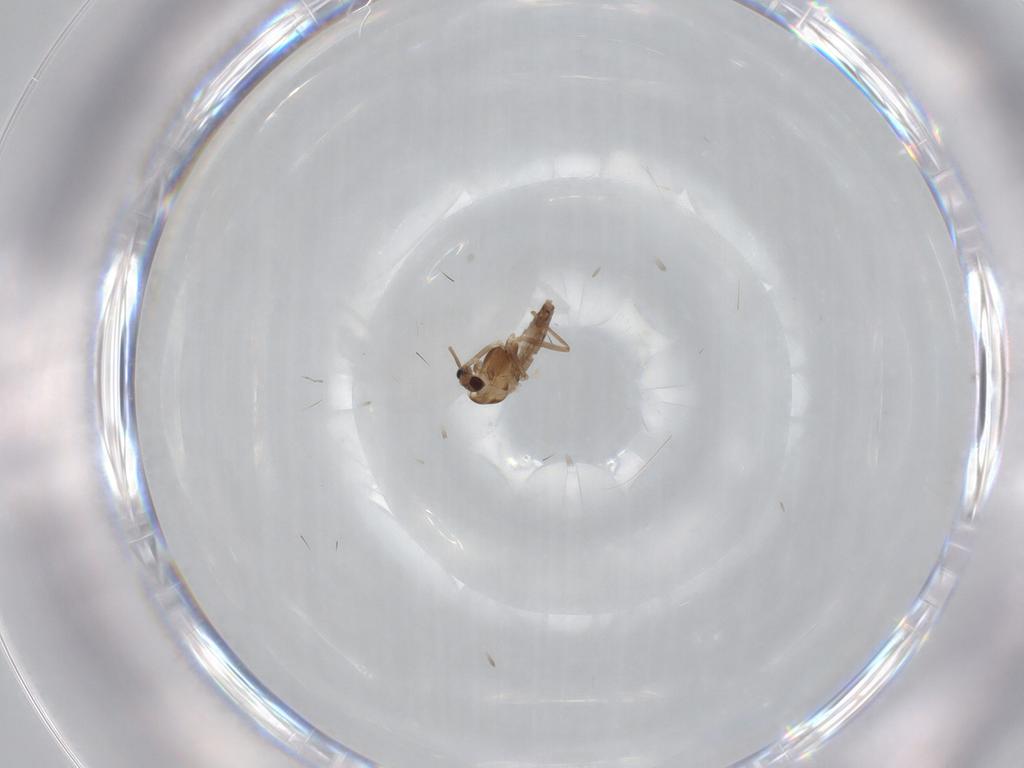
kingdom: Animalia
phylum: Arthropoda
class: Insecta
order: Diptera
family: Chironomidae
